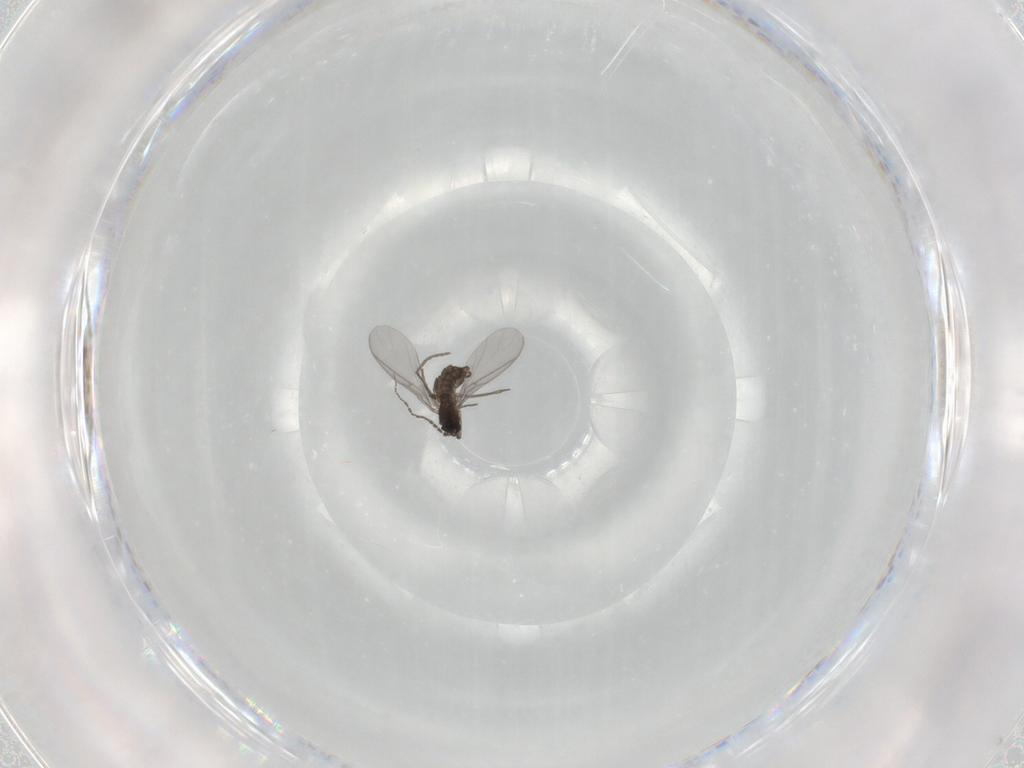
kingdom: Animalia
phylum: Arthropoda
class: Insecta
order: Diptera
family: Sciaridae
